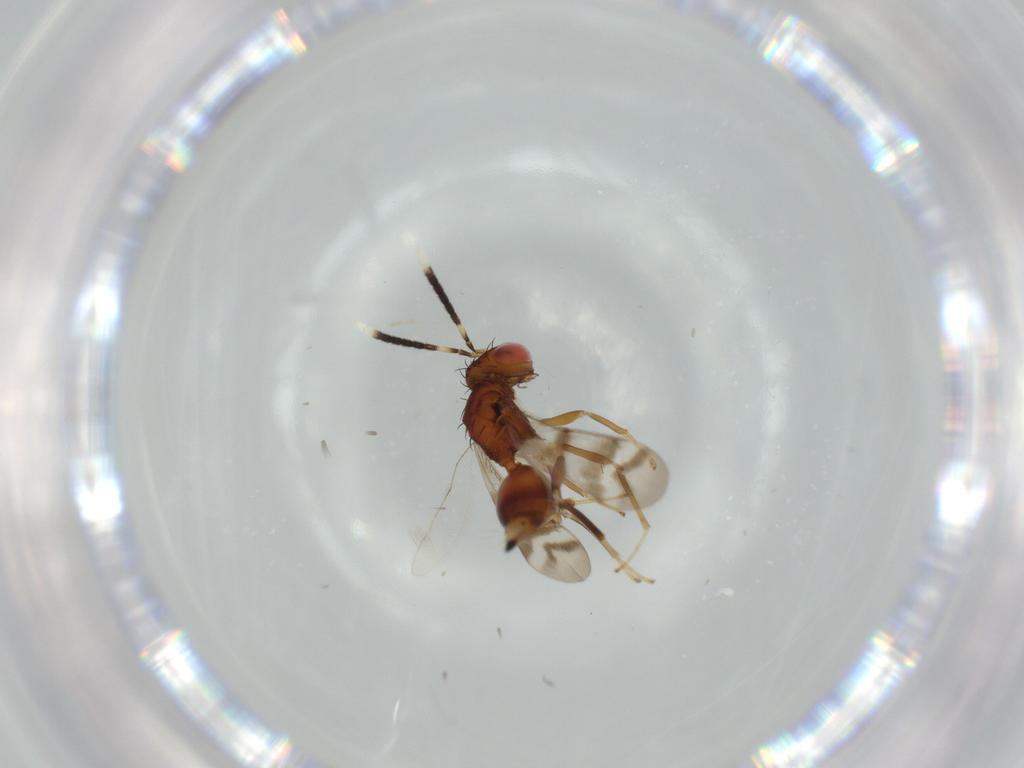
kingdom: Animalia
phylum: Arthropoda
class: Insecta
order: Hymenoptera
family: Diparidae
